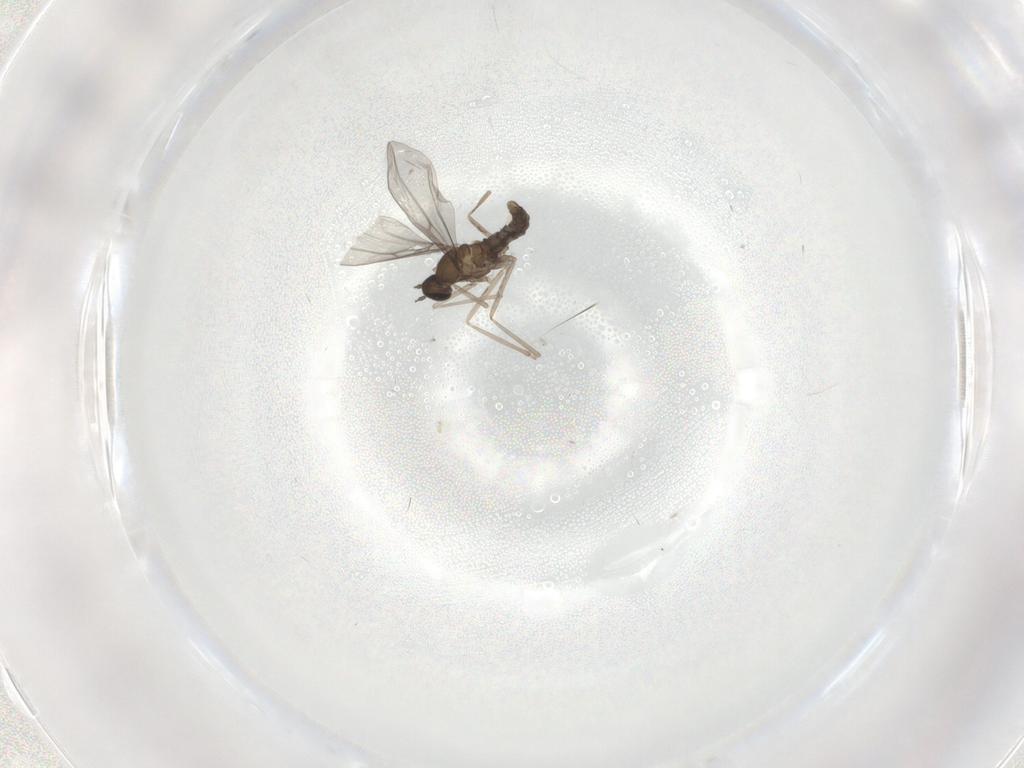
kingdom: Animalia
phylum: Arthropoda
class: Insecta
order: Diptera
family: Cecidomyiidae
